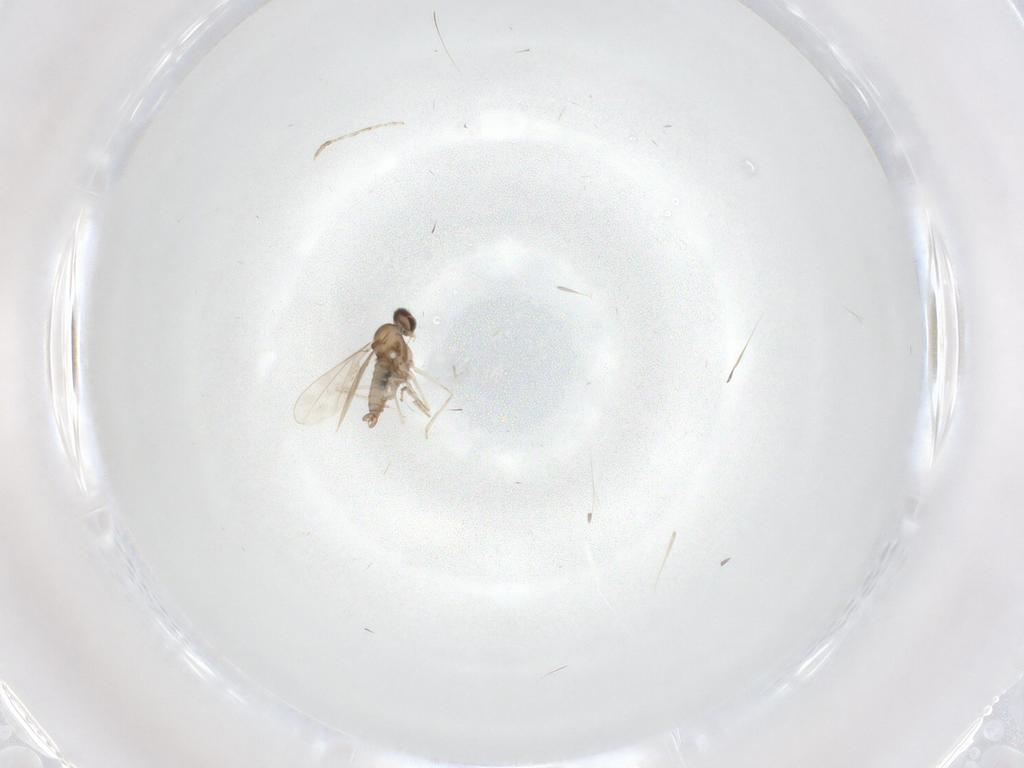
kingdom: Animalia
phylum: Arthropoda
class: Insecta
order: Diptera
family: Cecidomyiidae
